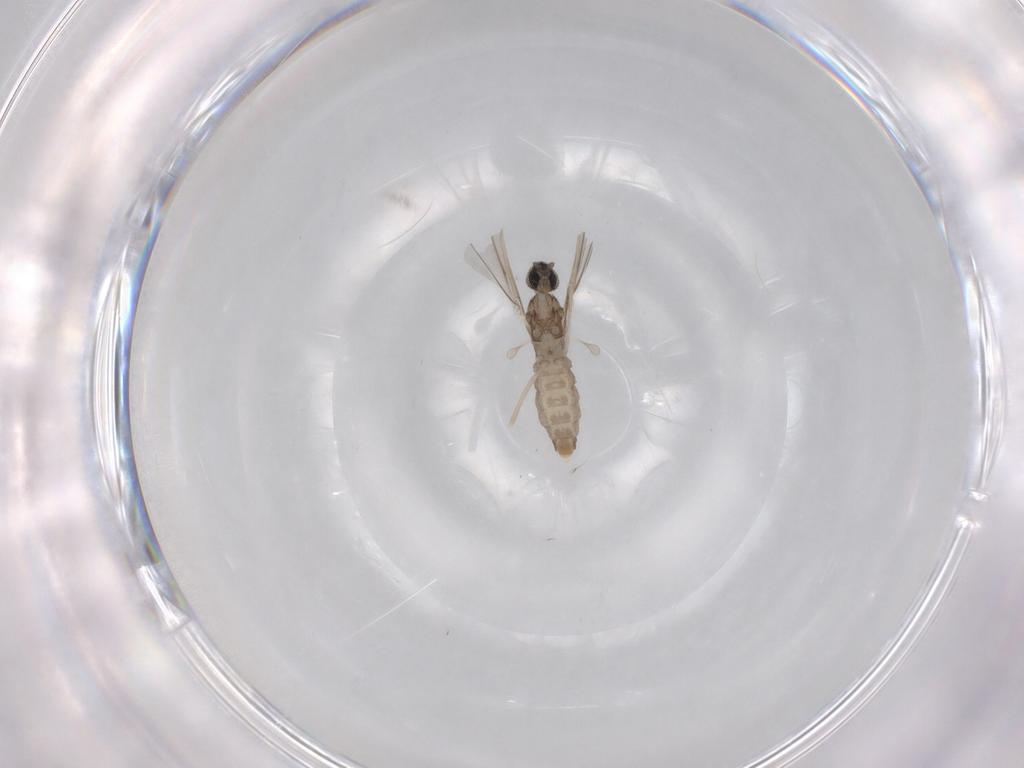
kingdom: Animalia
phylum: Arthropoda
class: Insecta
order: Diptera
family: Cecidomyiidae
